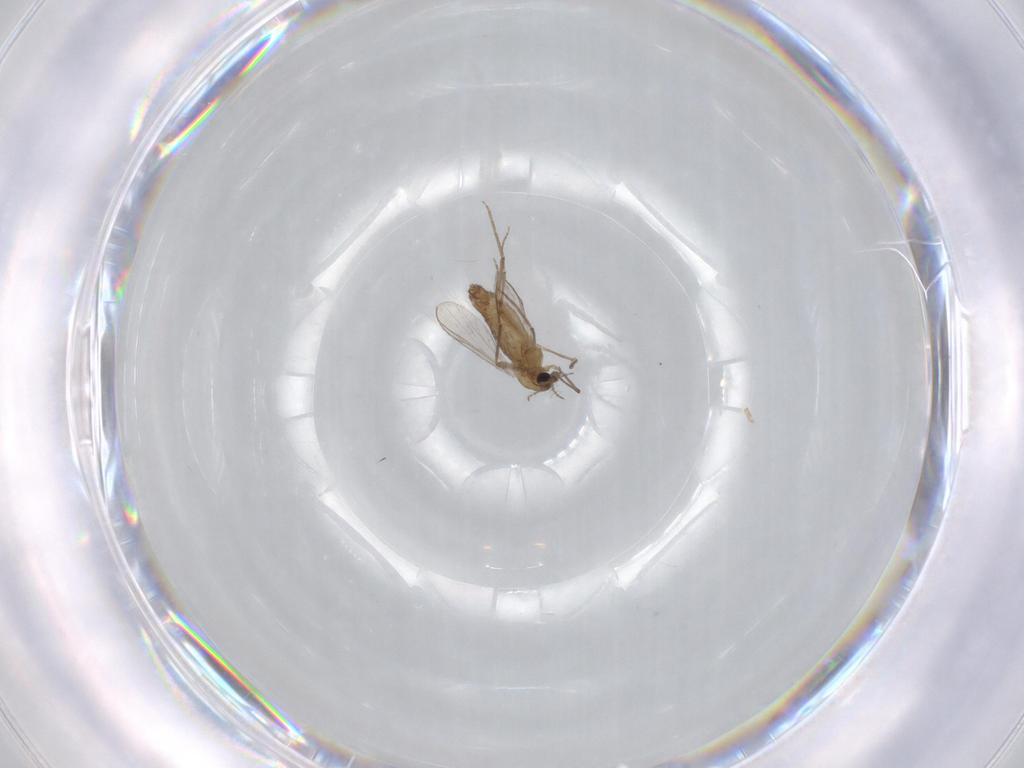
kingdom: Animalia
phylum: Arthropoda
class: Insecta
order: Diptera
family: Chironomidae
